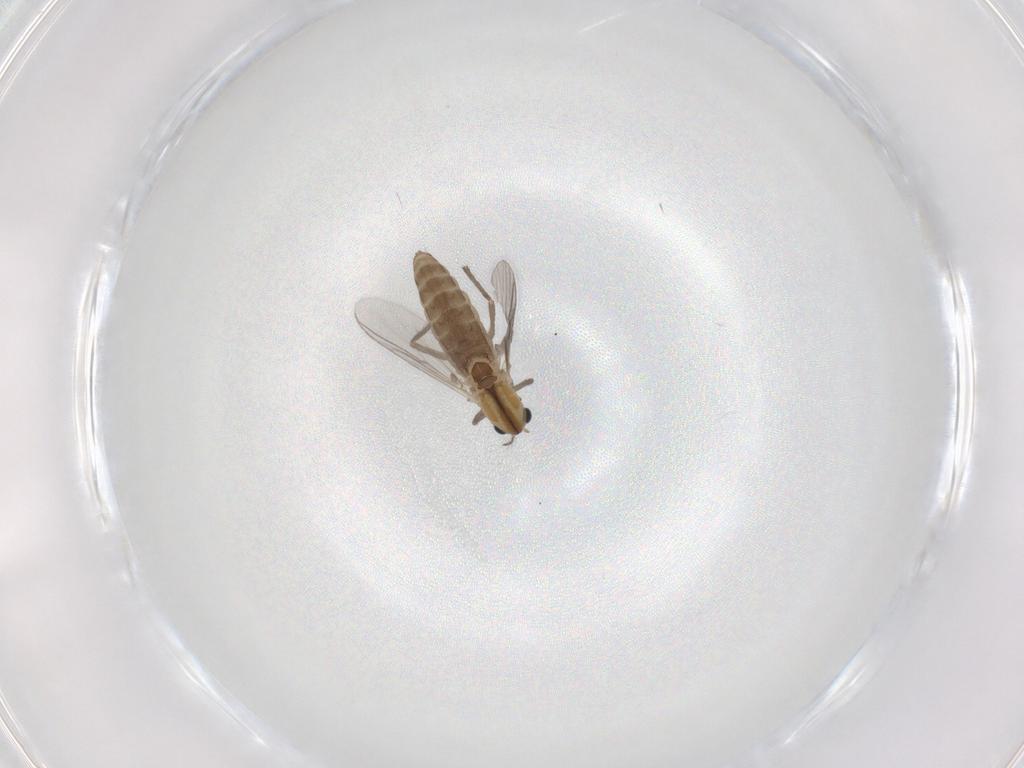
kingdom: Animalia
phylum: Arthropoda
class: Insecta
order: Diptera
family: Chironomidae
